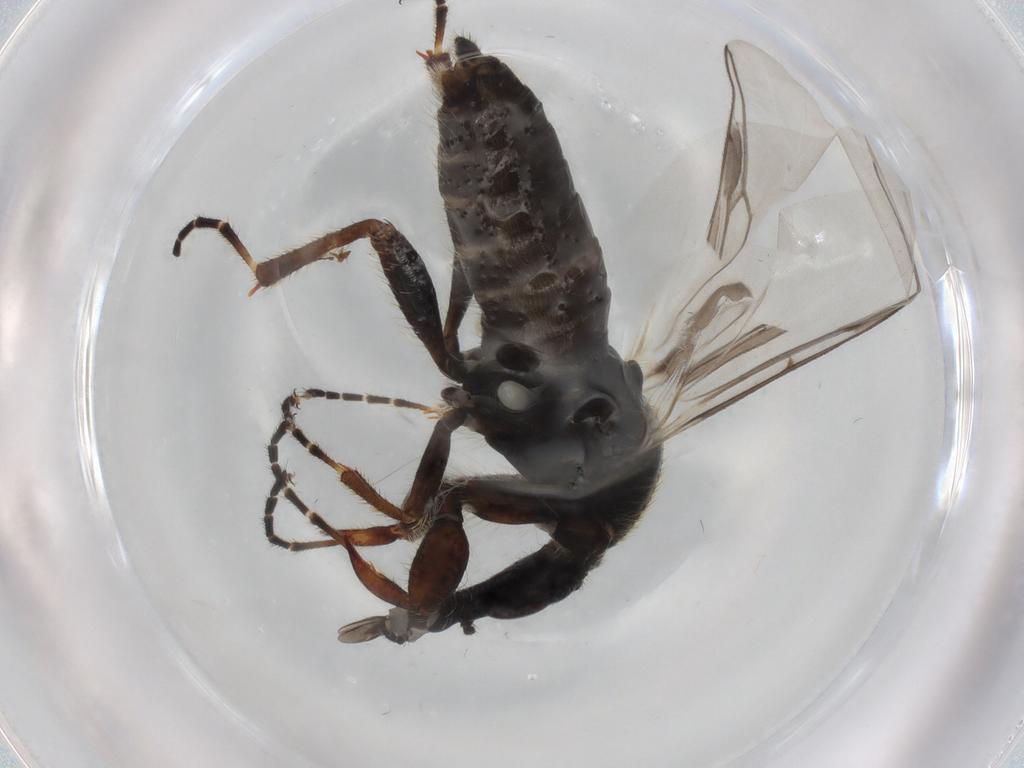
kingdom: Animalia
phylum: Arthropoda
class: Insecta
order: Diptera
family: Bibionidae
